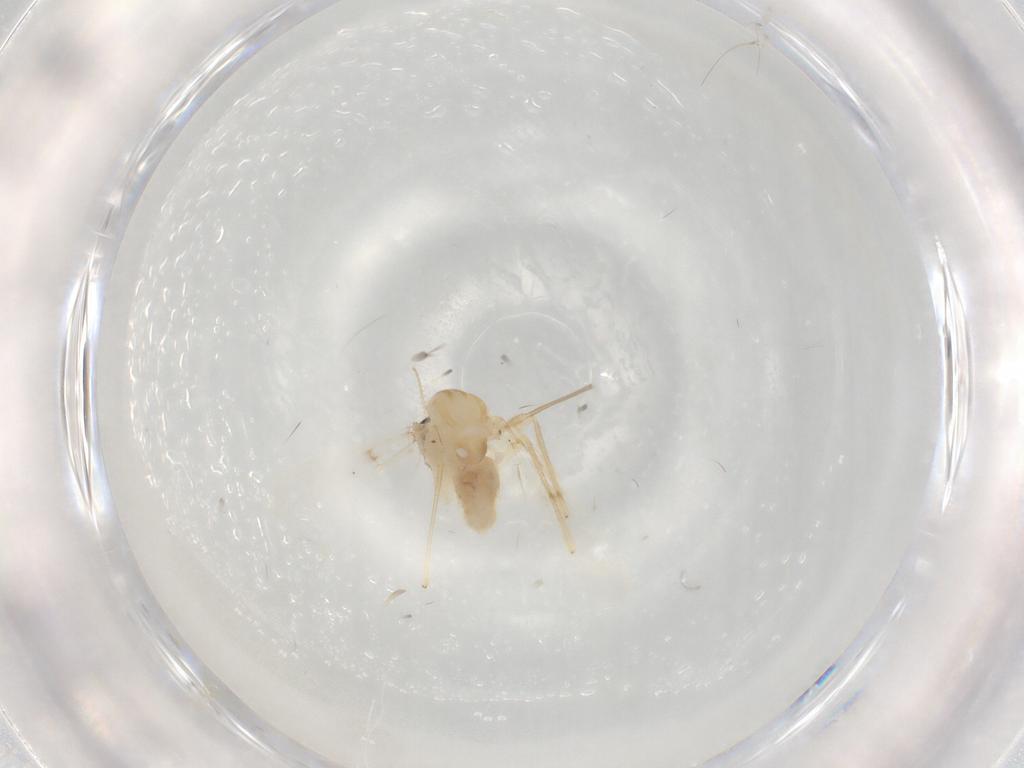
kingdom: Animalia
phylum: Arthropoda
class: Insecta
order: Diptera
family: Chironomidae
